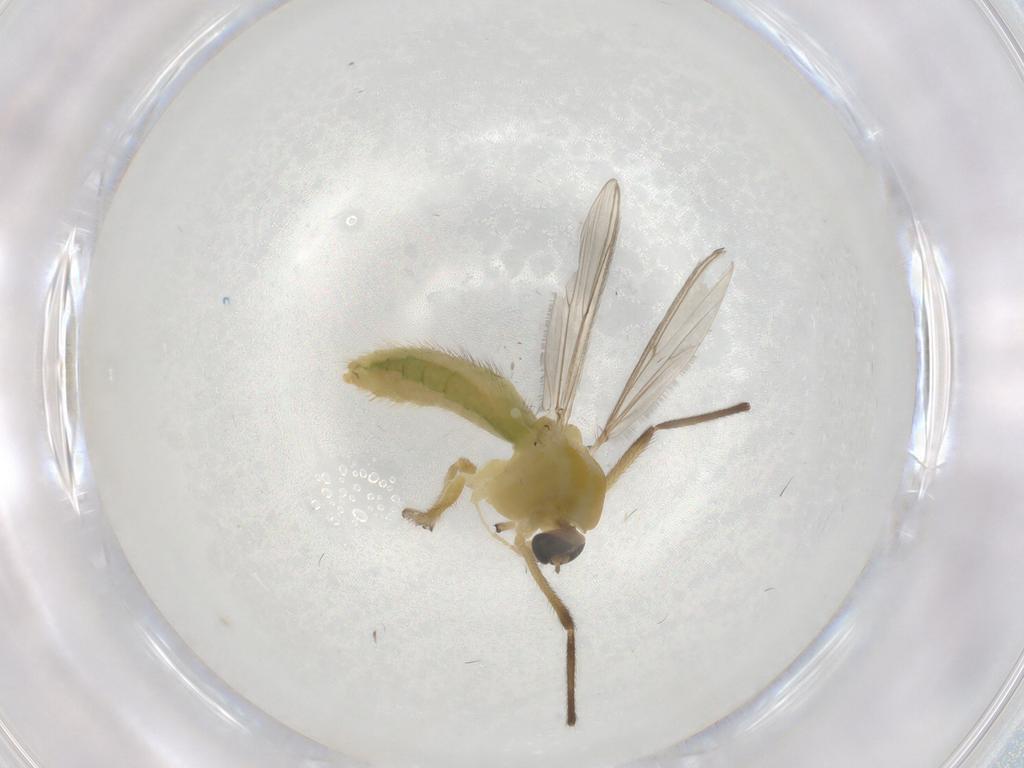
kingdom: Animalia
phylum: Arthropoda
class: Insecta
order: Diptera
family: Chironomidae
